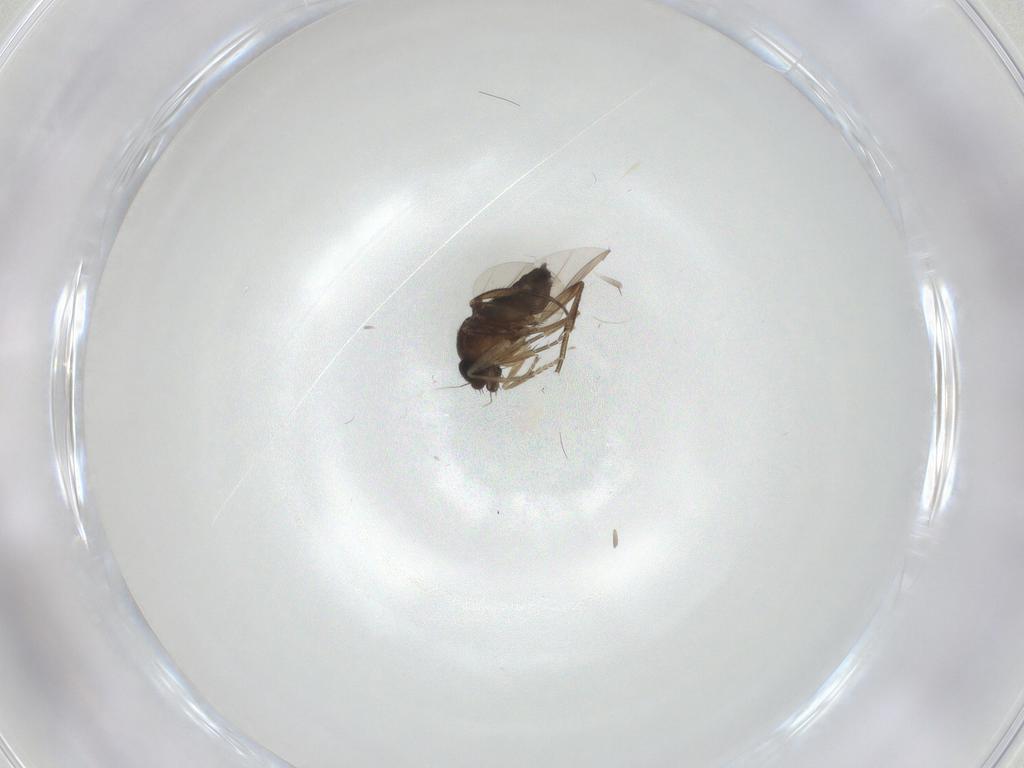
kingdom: Animalia
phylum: Arthropoda
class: Insecta
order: Diptera
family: Phoridae
